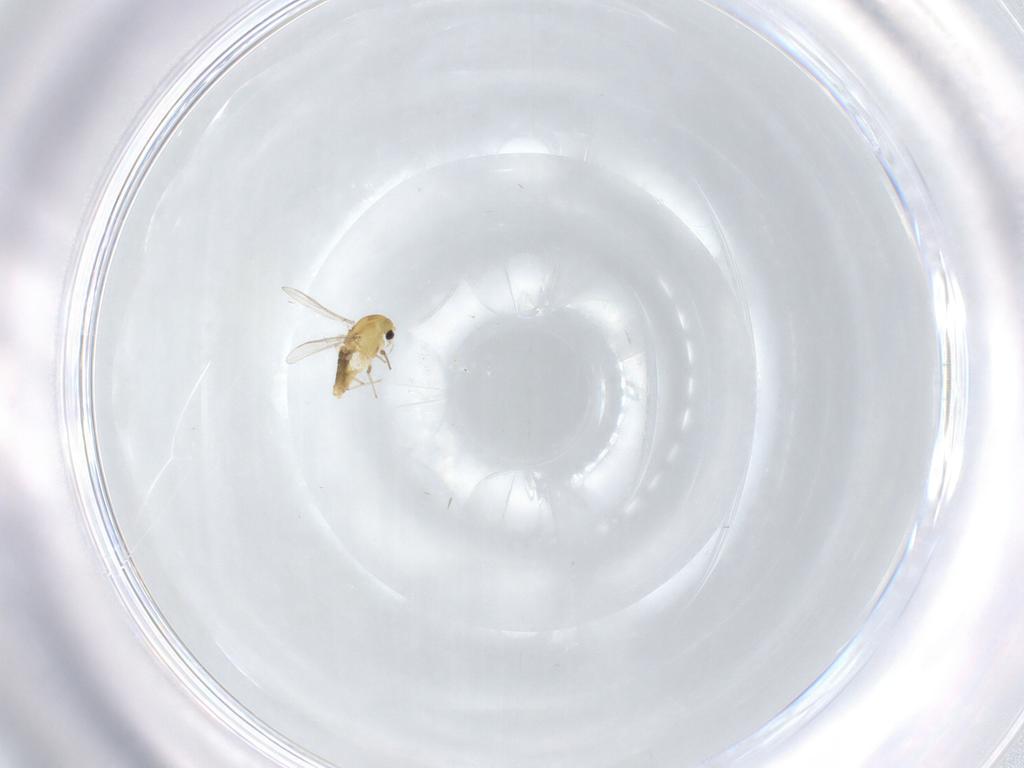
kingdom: Animalia
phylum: Arthropoda
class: Insecta
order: Diptera
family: Chironomidae
